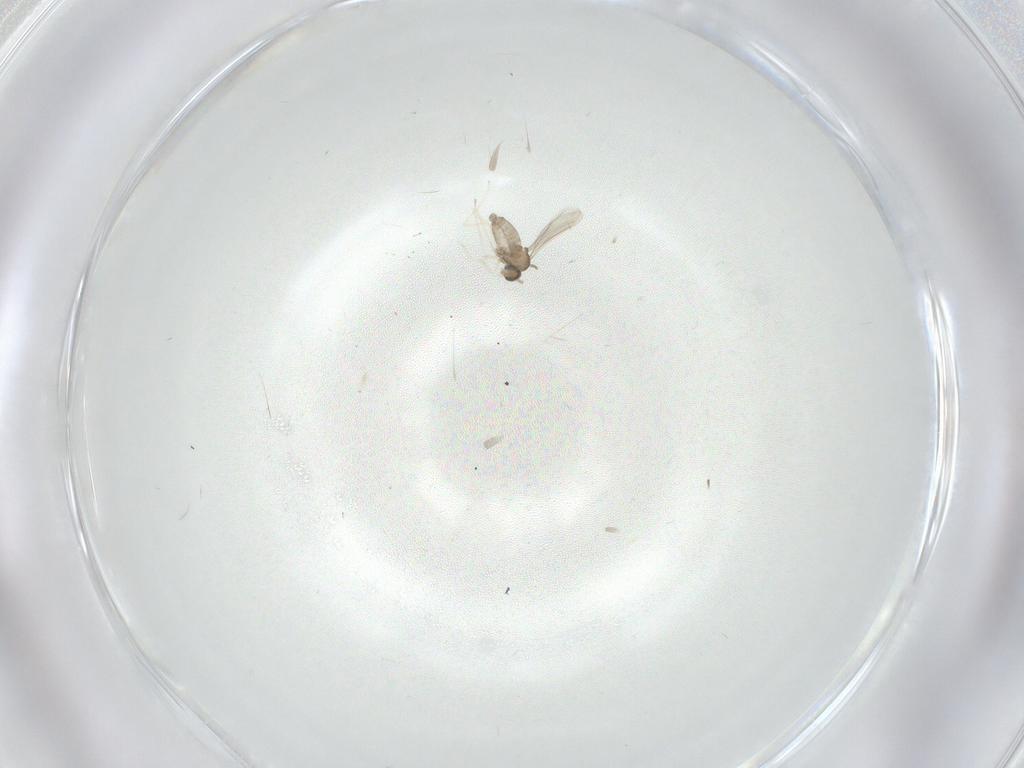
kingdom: Animalia
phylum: Arthropoda
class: Insecta
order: Diptera
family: Cecidomyiidae
